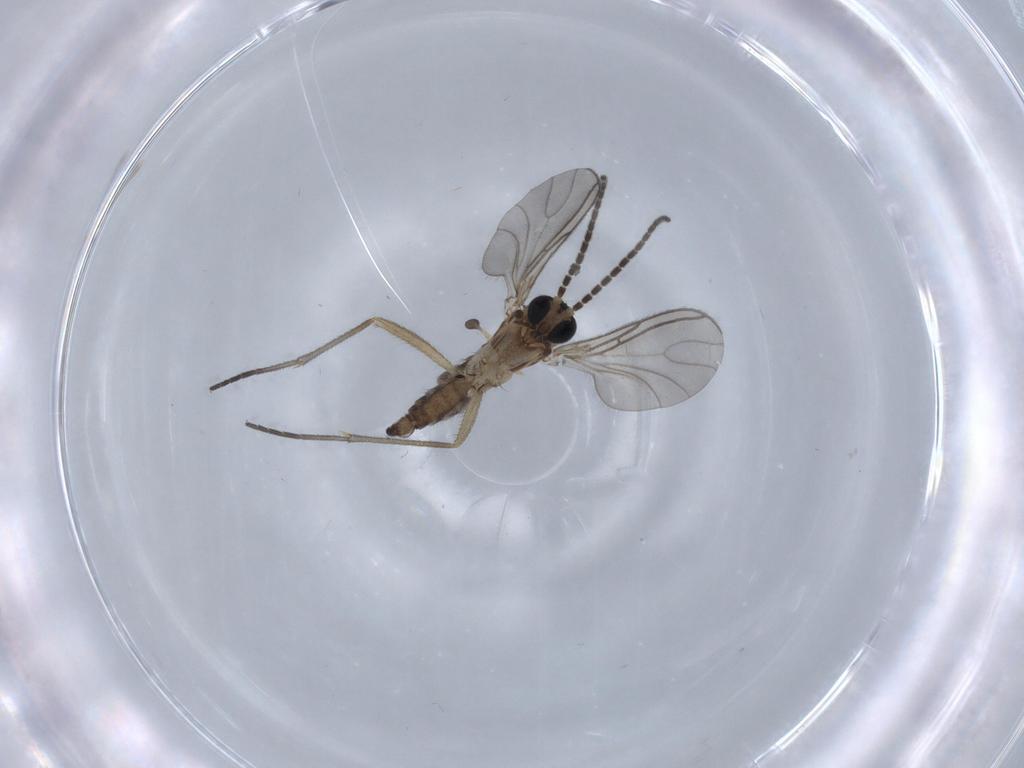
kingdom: Animalia
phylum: Arthropoda
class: Insecta
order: Diptera
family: Sciaridae
